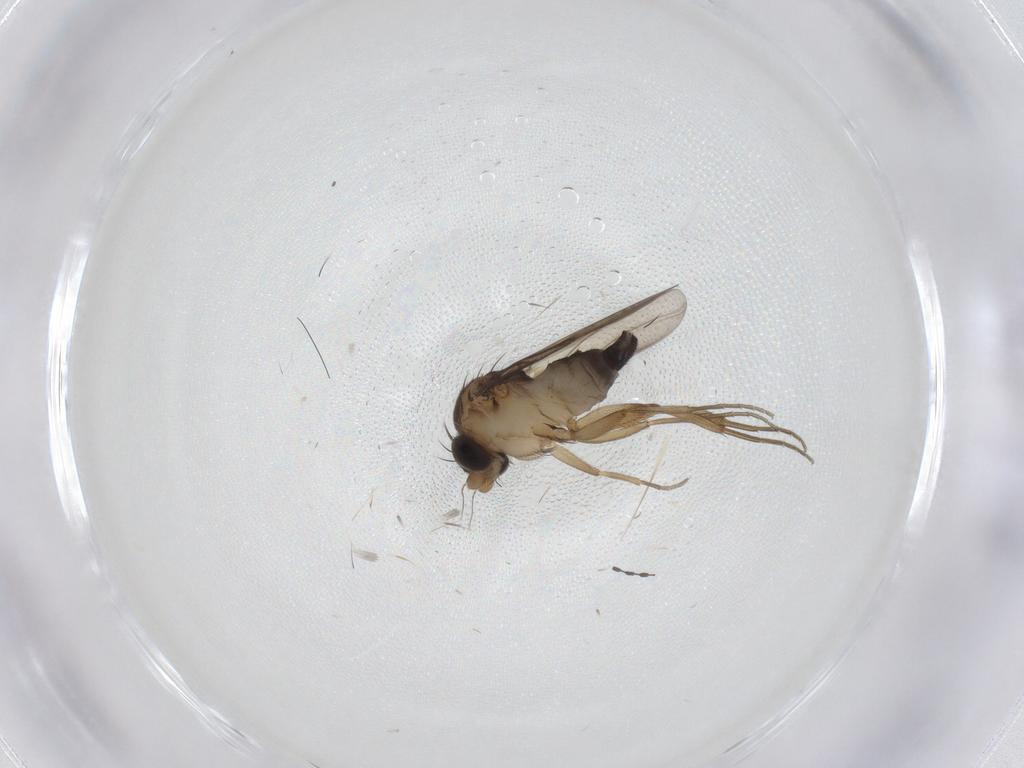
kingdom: Animalia
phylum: Arthropoda
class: Insecta
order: Diptera
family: Phoridae
